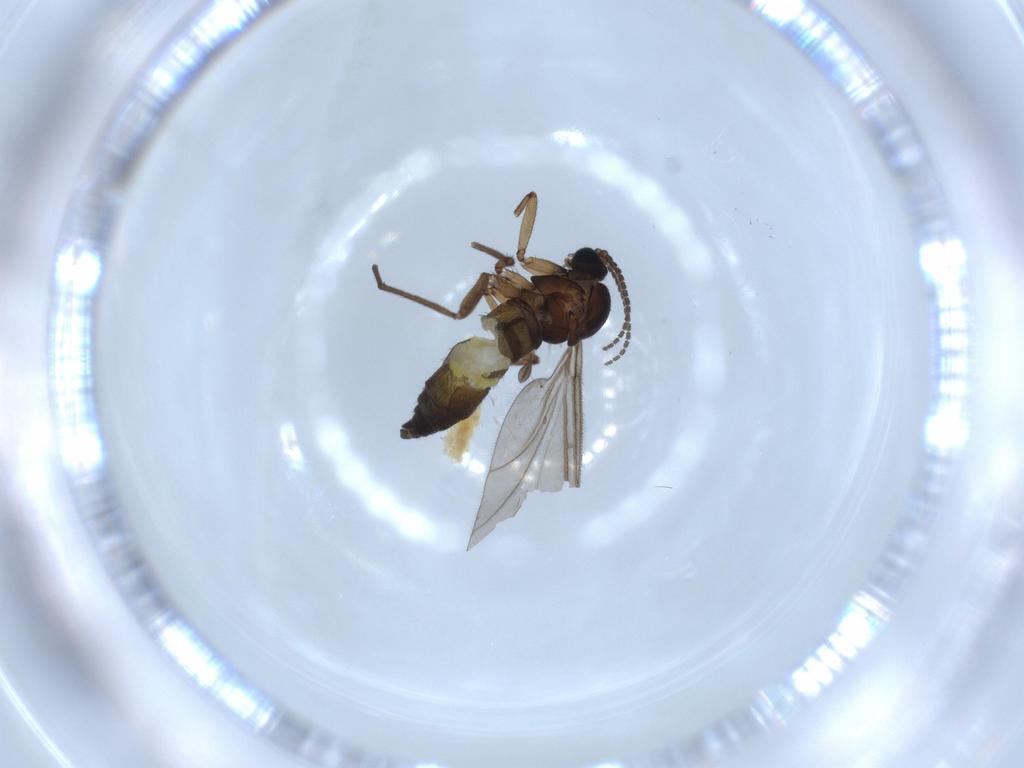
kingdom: Animalia
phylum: Arthropoda
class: Insecta
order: Diptera
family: Sciaridae
